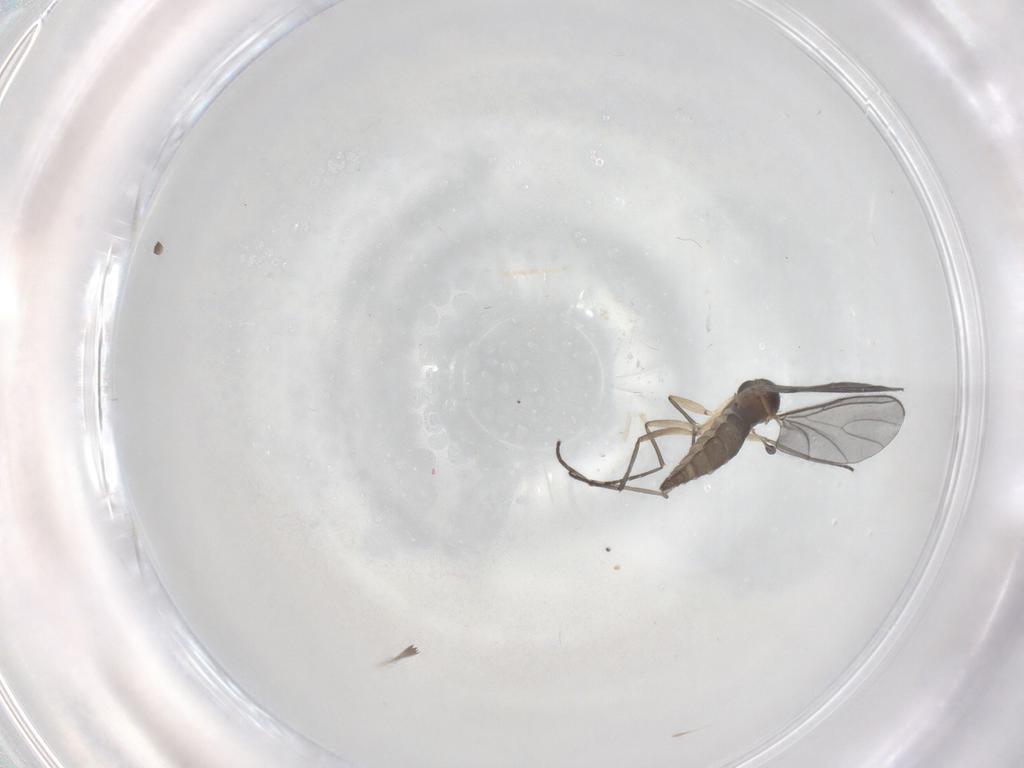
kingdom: Animalia
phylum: Arthropoda
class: Insecta
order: Diptera
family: Sciaridae
